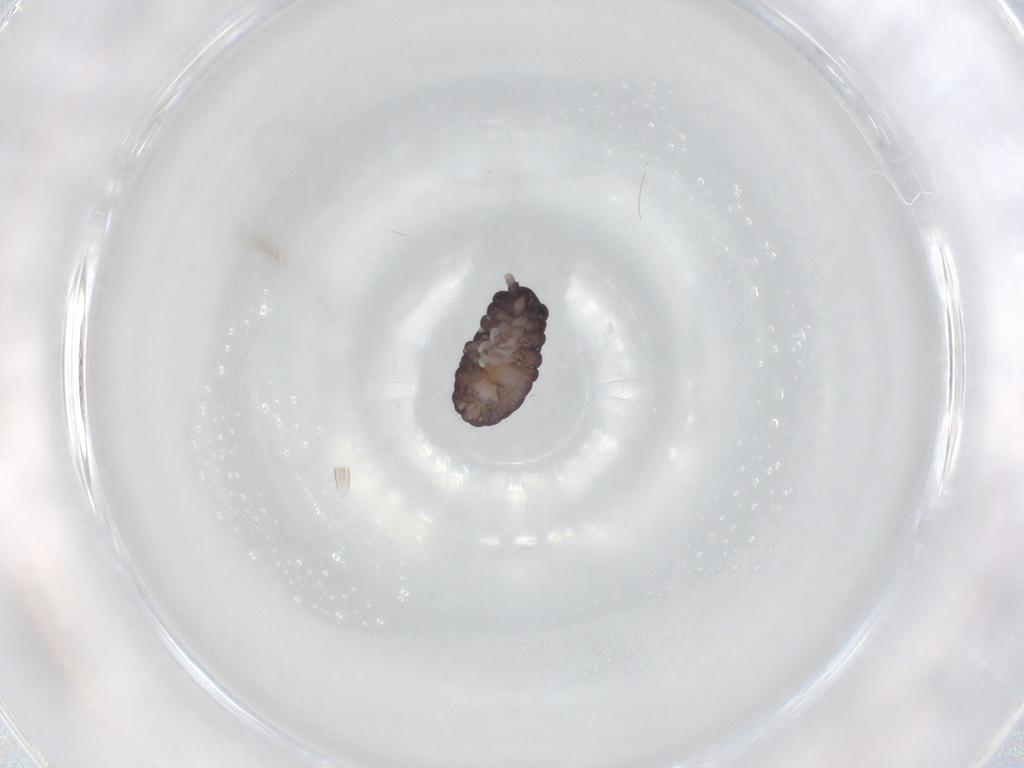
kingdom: Animalia
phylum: Arthropoda
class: Collembola
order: Poduromorpha
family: Neanuridae
